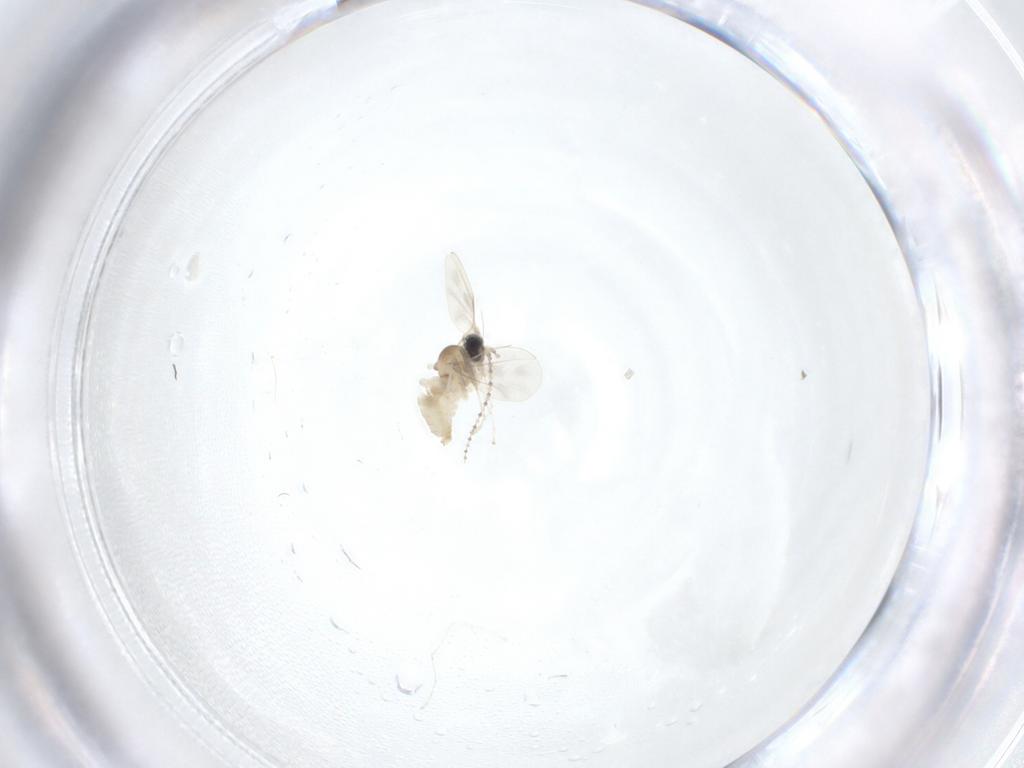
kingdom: Animalia
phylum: Arthropoda
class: Insecta
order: Diptera
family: Cecidomyiidae
